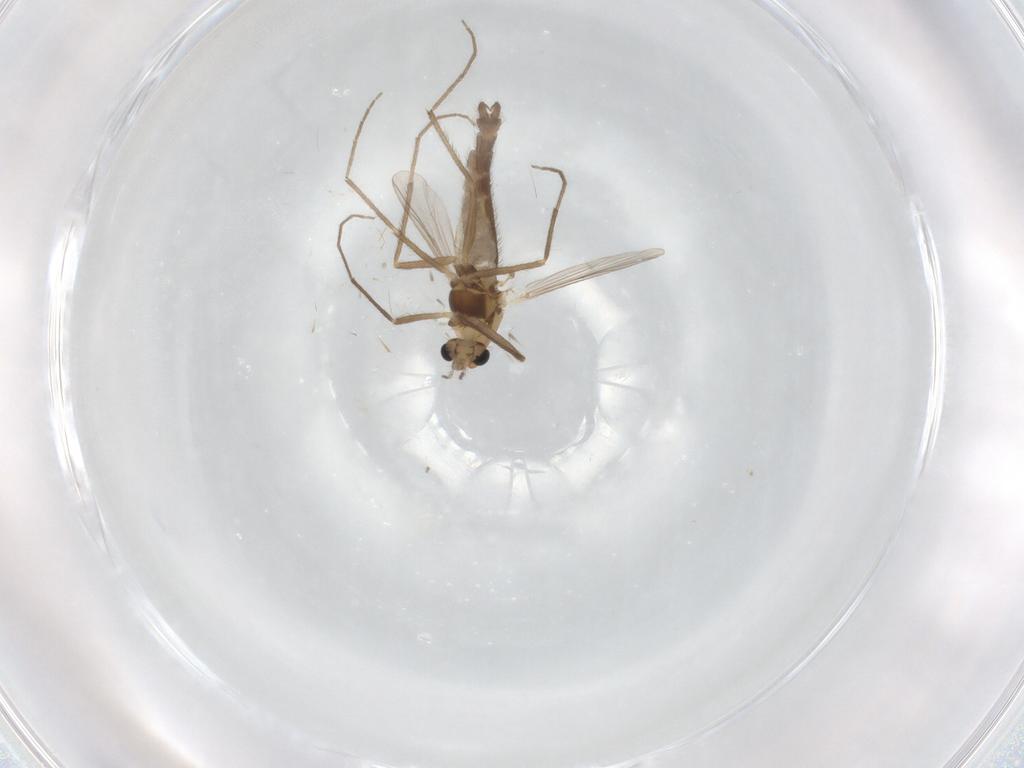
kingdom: Animalia
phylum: Arthropoda
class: Insecta
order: Diptera
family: Chironomidae
